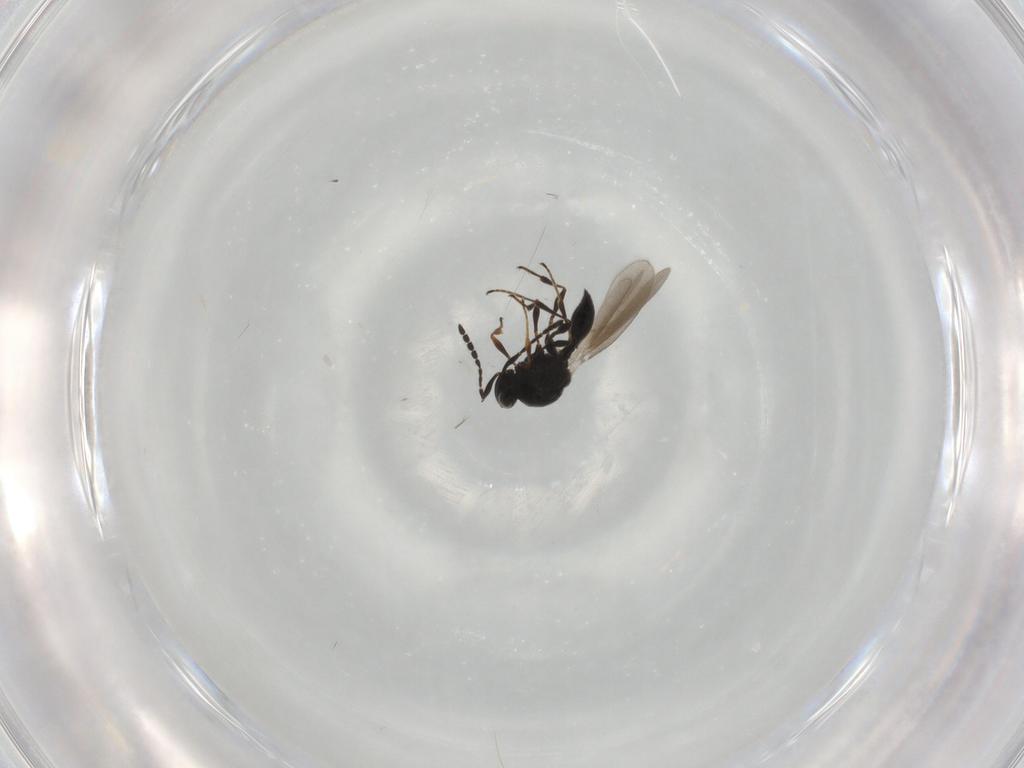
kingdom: Animalia
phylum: Arthropoda
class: Insecta
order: Hymenoptera
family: Platygastridae
